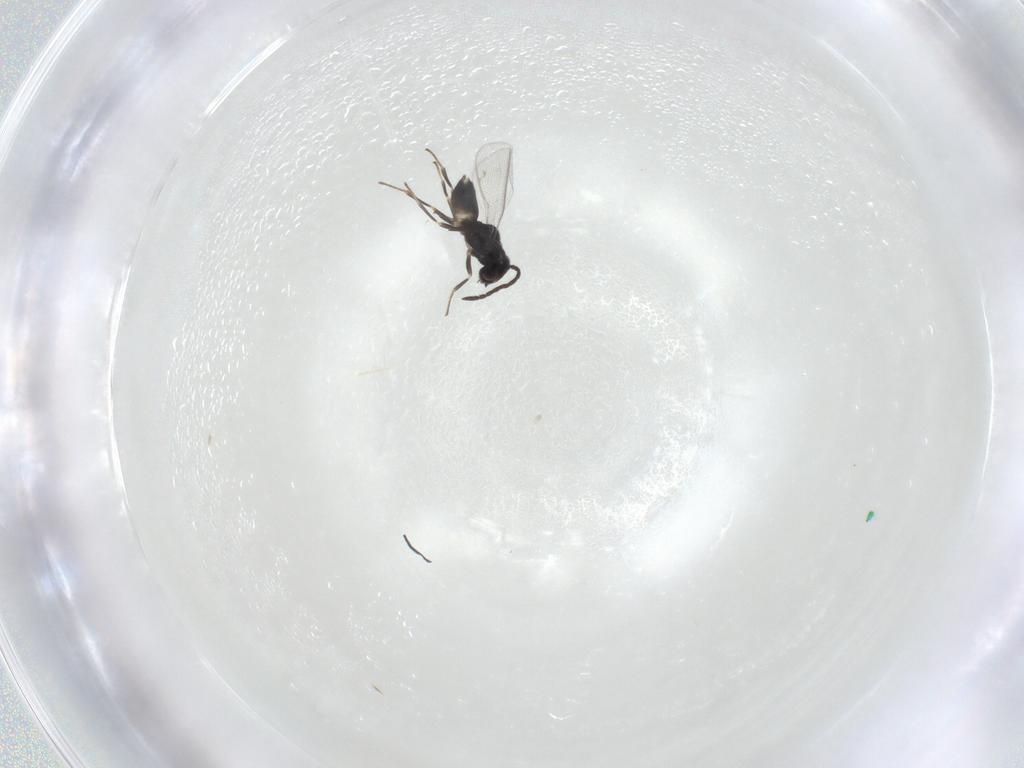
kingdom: Animalia
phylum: Arthropoda
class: Insecta
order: Hymenoptera
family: Eupelmidae
